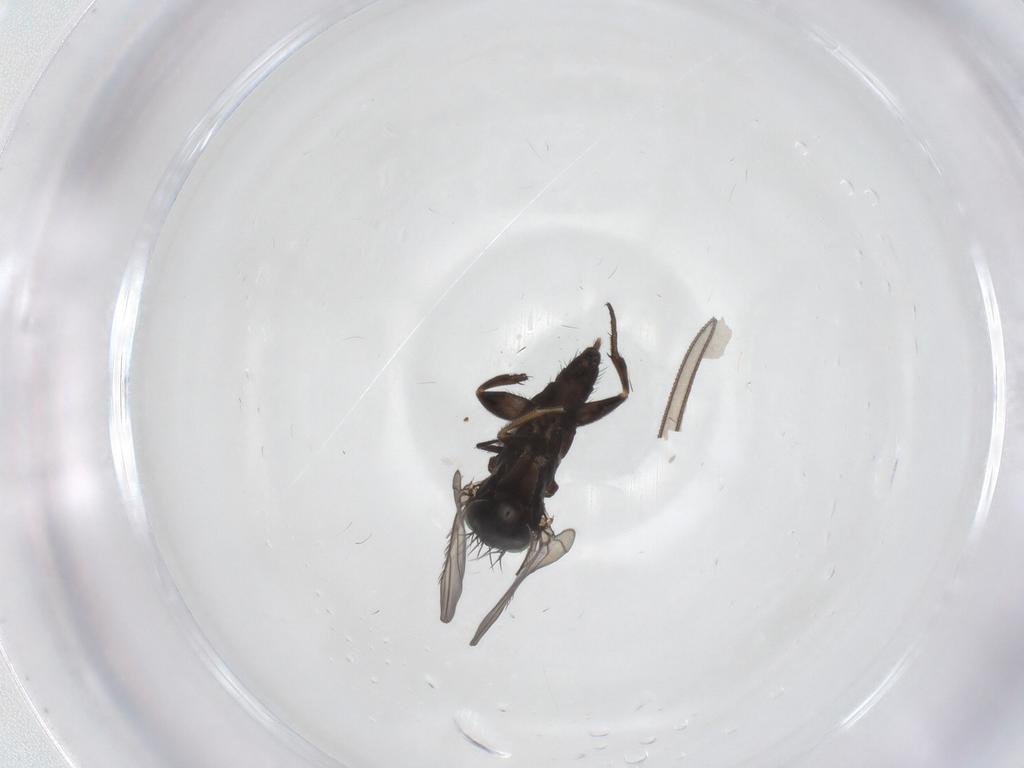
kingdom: Animalia
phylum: Arthropoda
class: Insecta
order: Diptera
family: Phoridae
